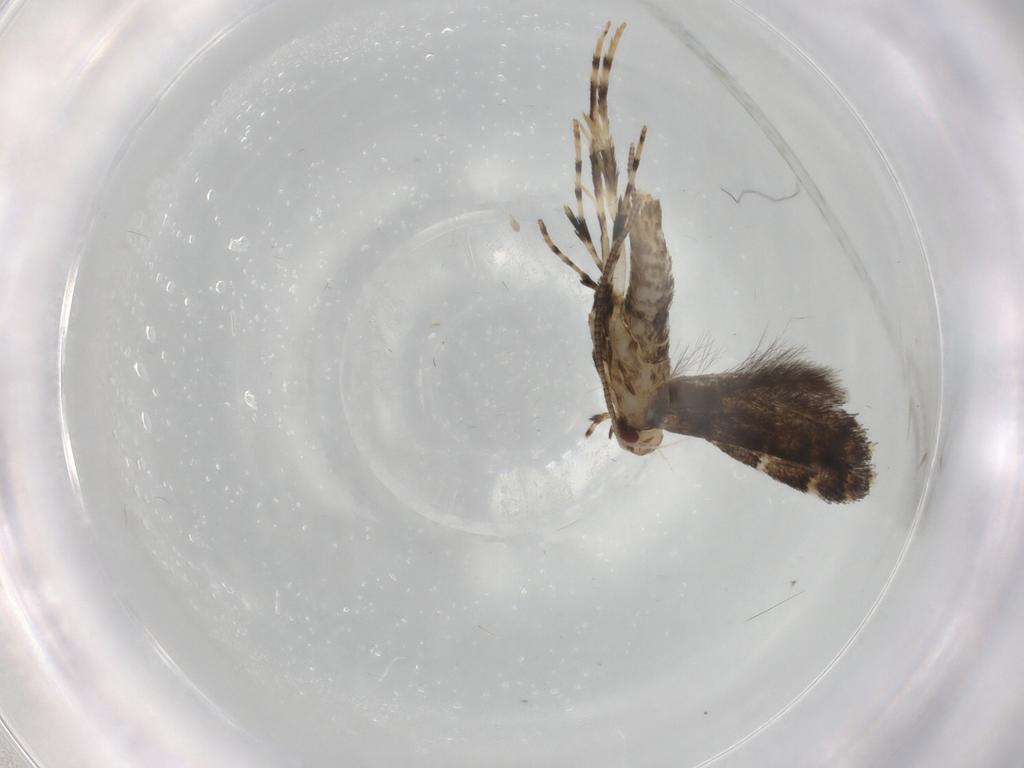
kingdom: Animalia
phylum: Arthropoda
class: Insecta
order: Lepidoptera
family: Gracillariidae
